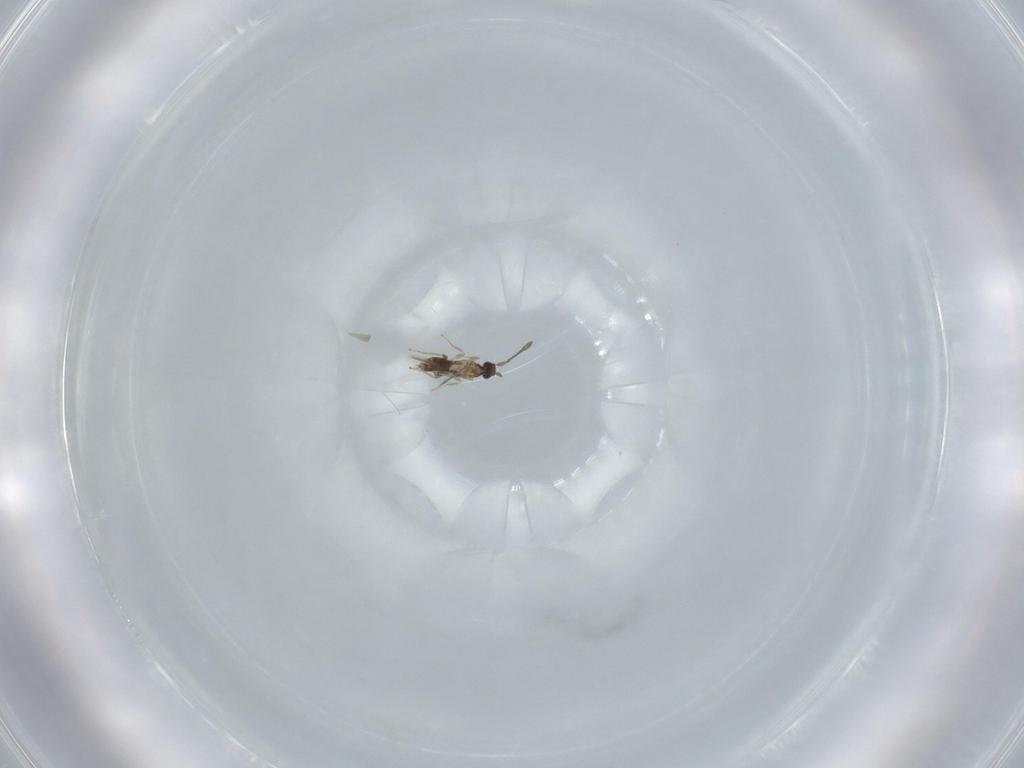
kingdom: Animalia
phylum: Arthropoda
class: Insecta
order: Hymenoptera
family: Mymaridae
